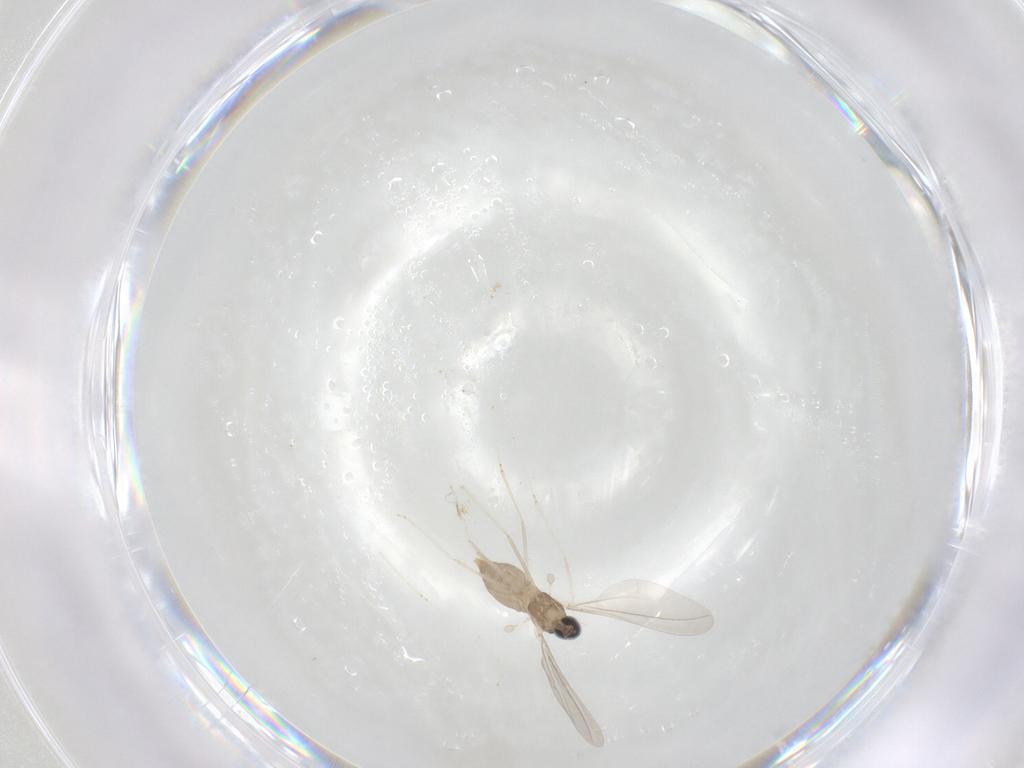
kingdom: Animalia
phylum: Arthropoda
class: Insecta
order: Diptera
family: Cecidomyiidae
